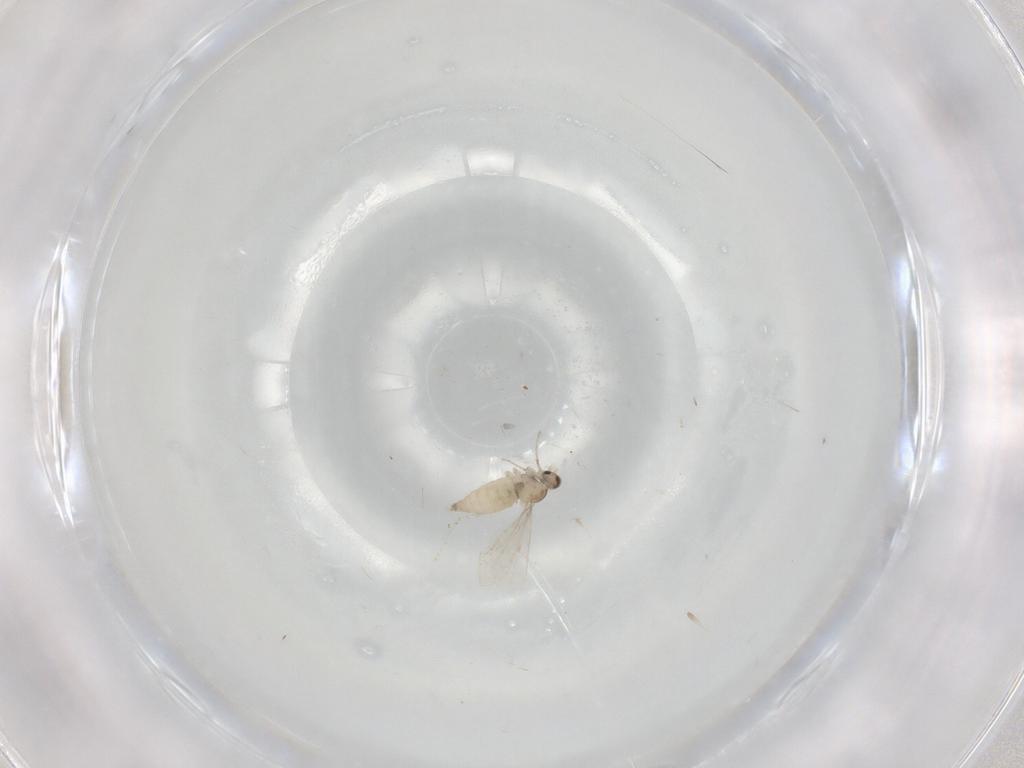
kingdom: Animalia
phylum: Arthropoda
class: Insecta
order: Diptera
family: Cecidomyiidae
